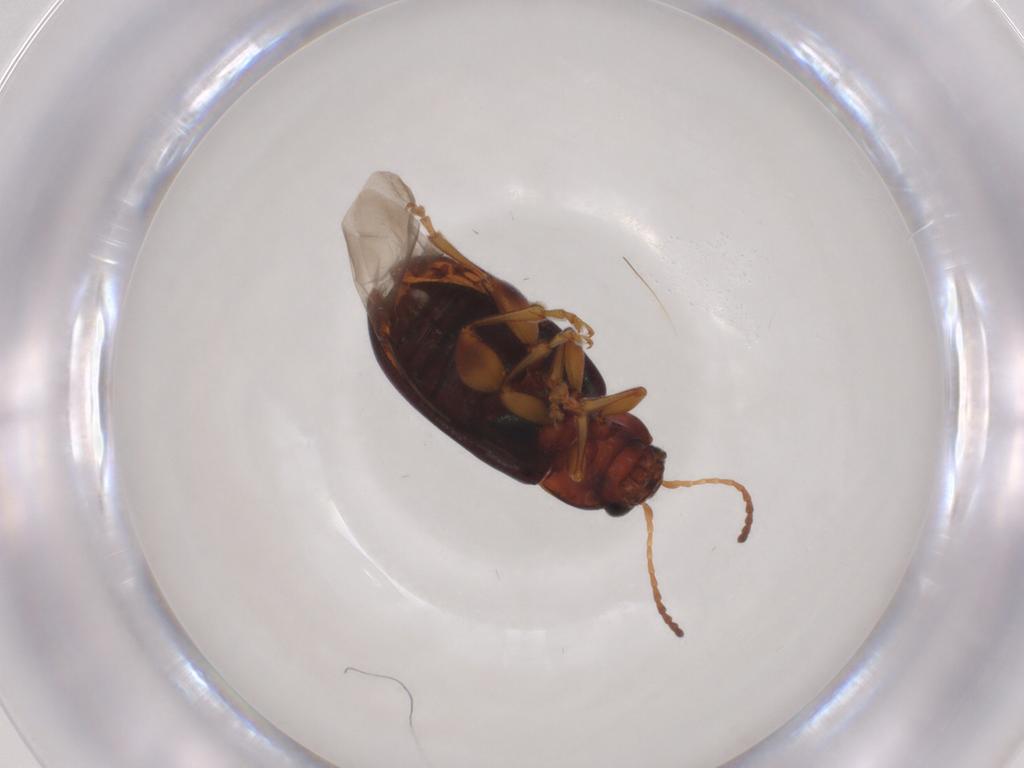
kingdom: Animalia
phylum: Arthropoda
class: Insecta
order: Coleoptera
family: Chrysomelidae
